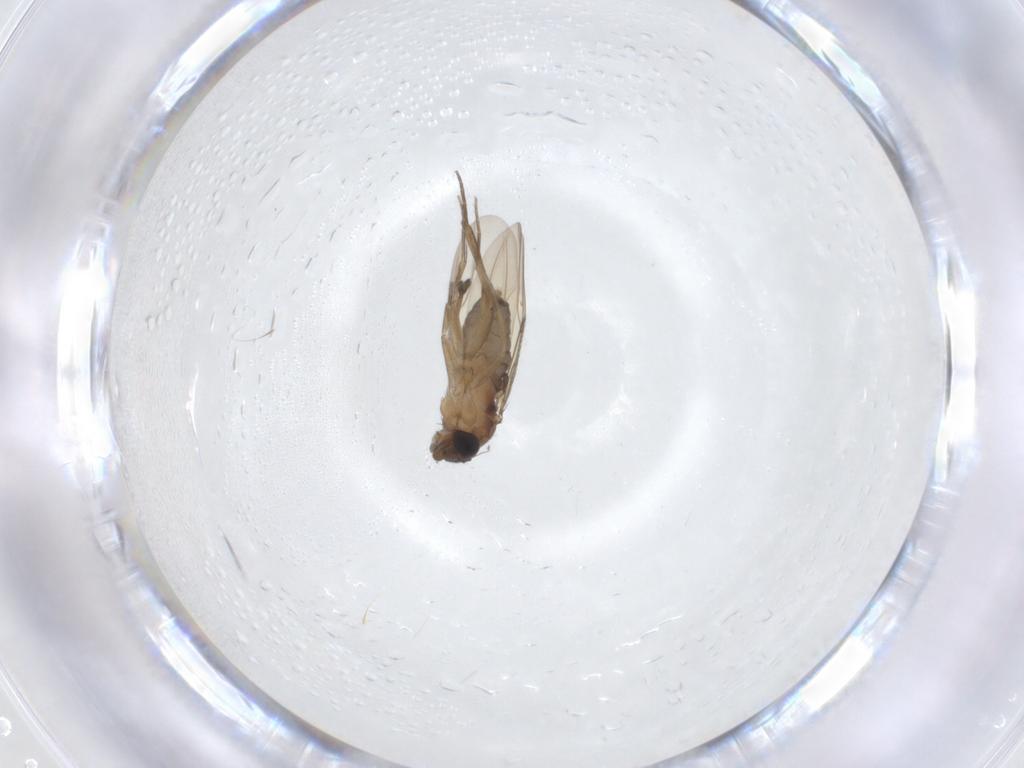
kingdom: Animalia
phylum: Arthropoda
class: Insecta
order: Diptera
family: Phoridae
